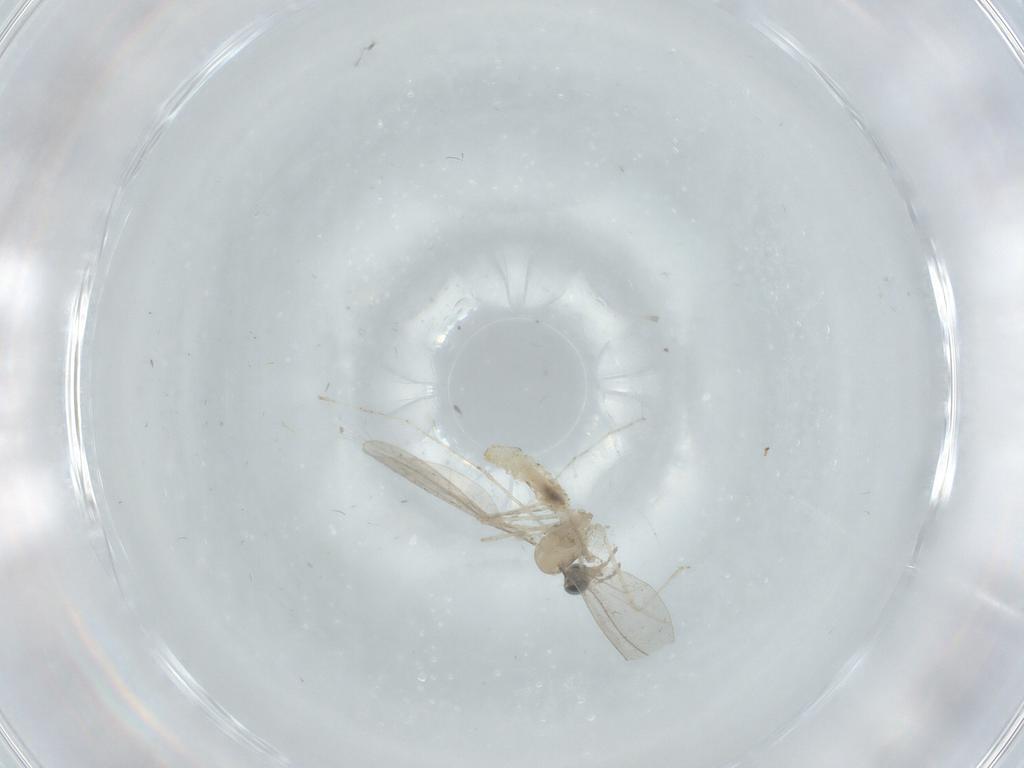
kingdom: Animalia
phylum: Arthropoda
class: Insecta
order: Diptera
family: Cecidomyiidae
